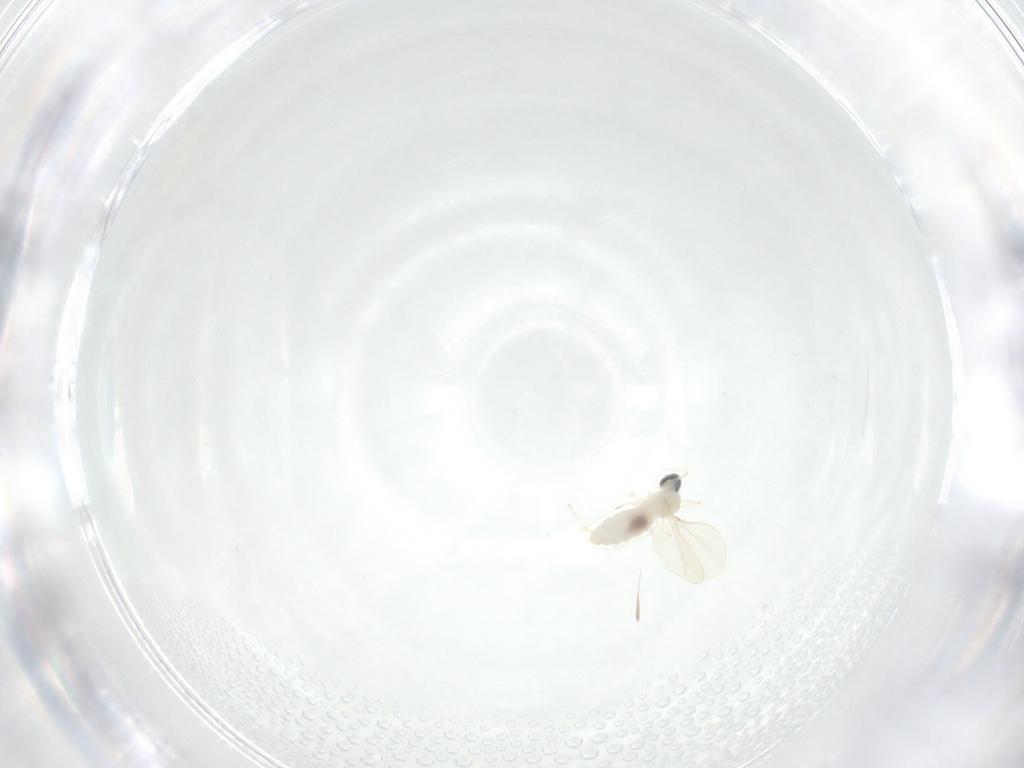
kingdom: Animalia
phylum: Arthropoda
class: Insecta
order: Diptera
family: Cecidomyiidae
